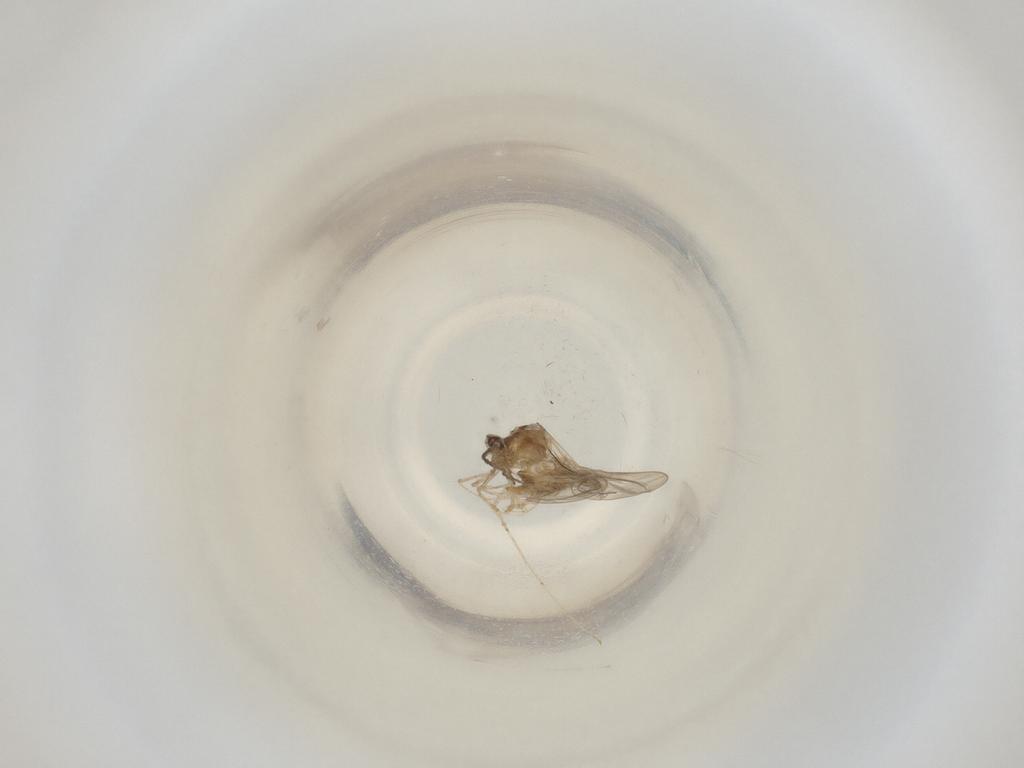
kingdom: Animalia
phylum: Arthropoda
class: Insecta
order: Diptera
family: Cecidomyiidae
